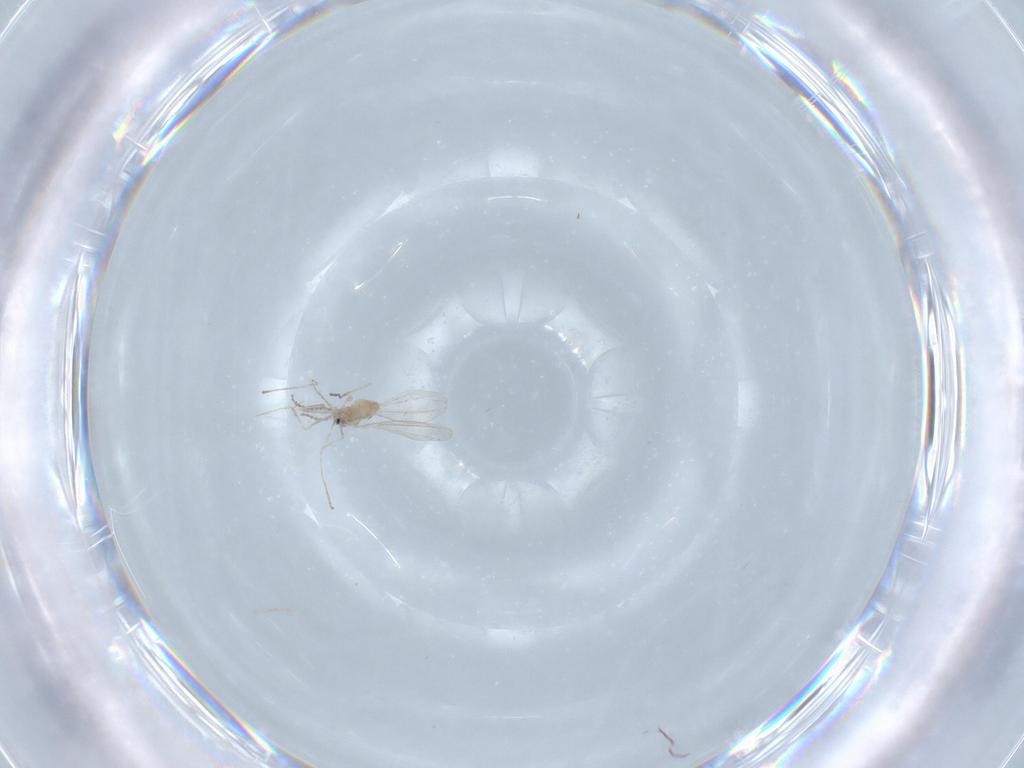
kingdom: Animalia
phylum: Arthropoda
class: Insecta
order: Diptera
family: Cecidomyiidae
